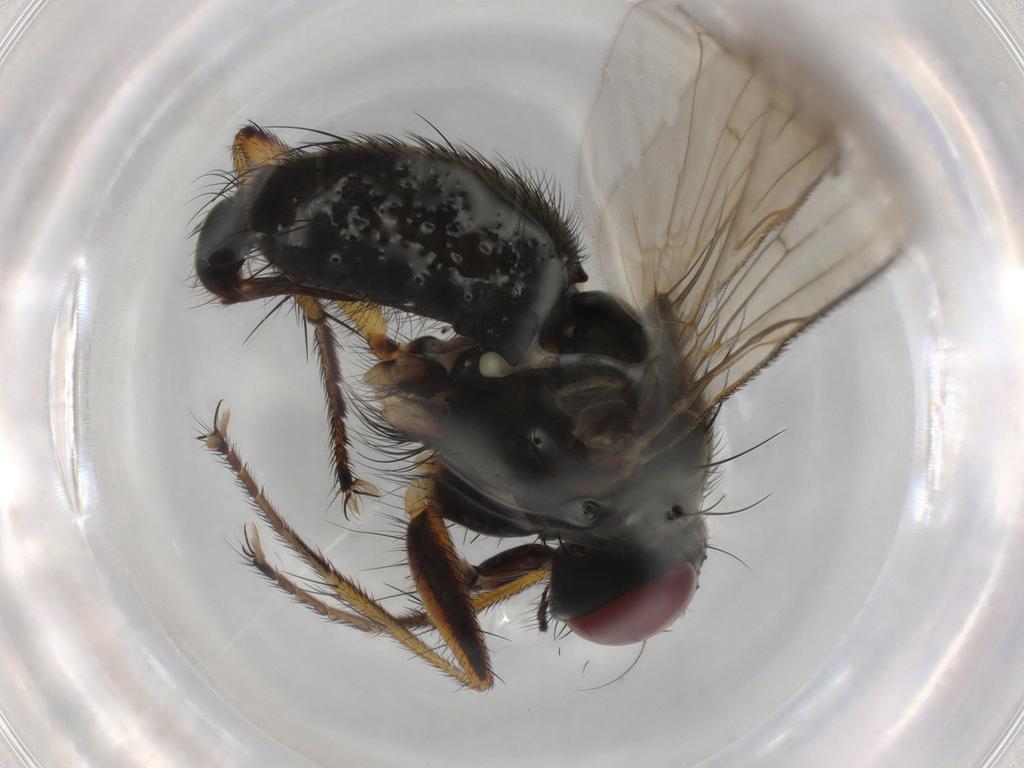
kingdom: Animalia
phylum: Arthropoda
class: Insecta
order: Diptera
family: Muscidae
